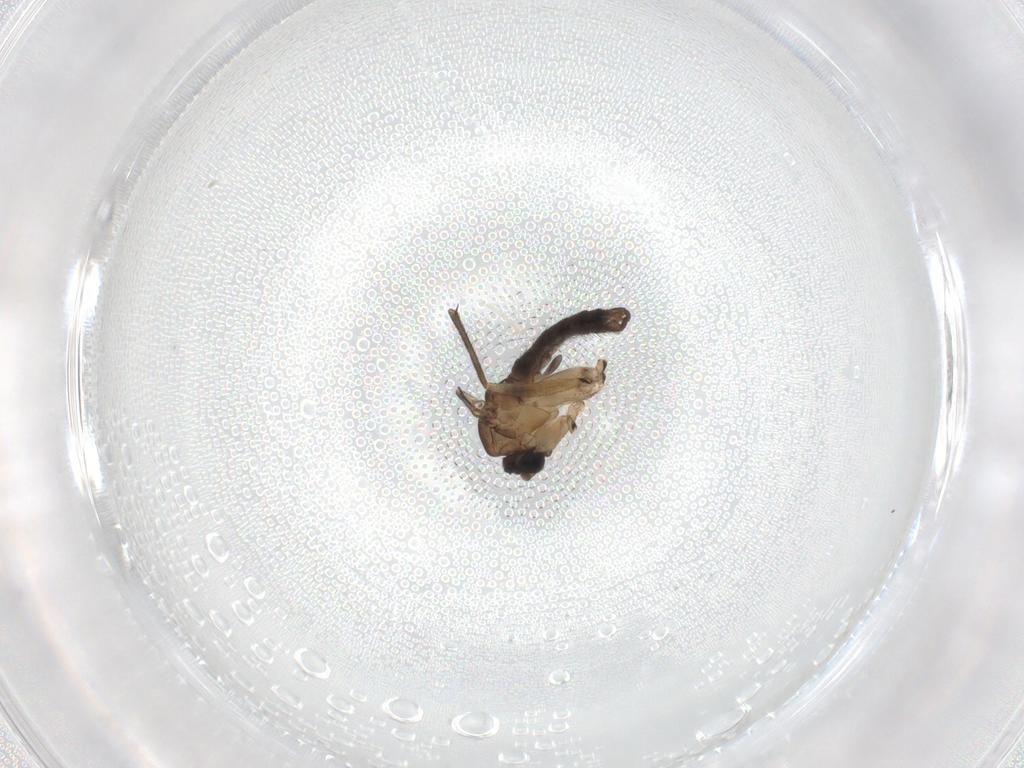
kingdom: Animalia
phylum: Arthropoda
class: Insecta
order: Diptera
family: Sciaridae
